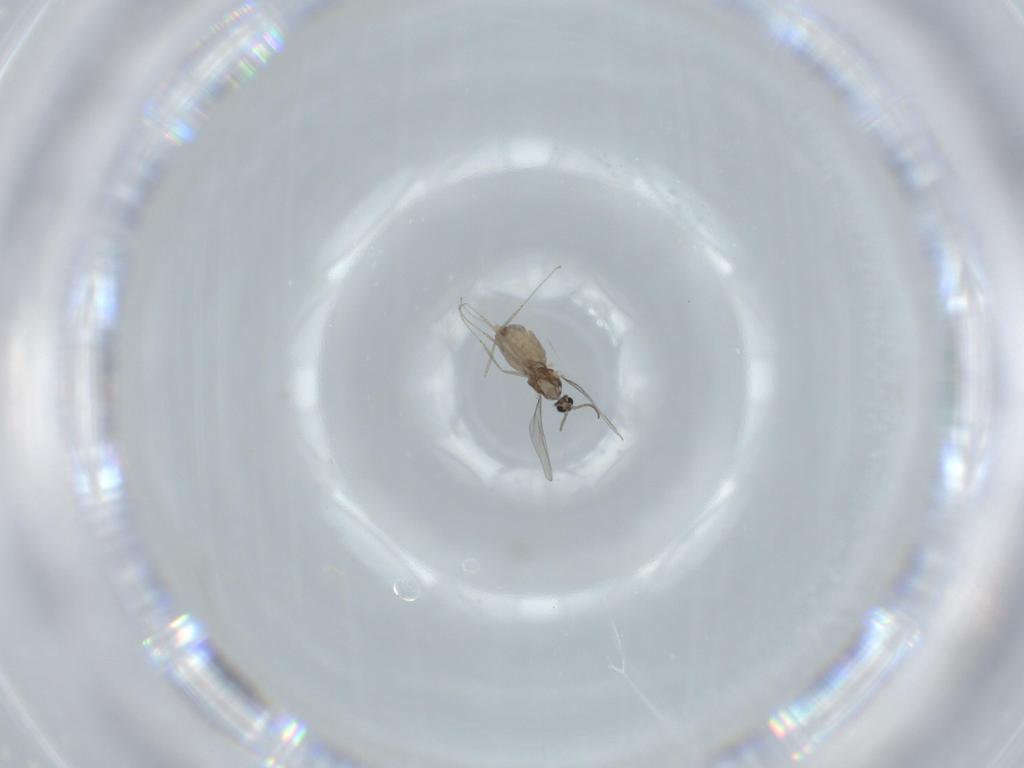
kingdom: Animalia
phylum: Arthropoda
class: Insecta
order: Diptera
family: Cecidomyiidae
